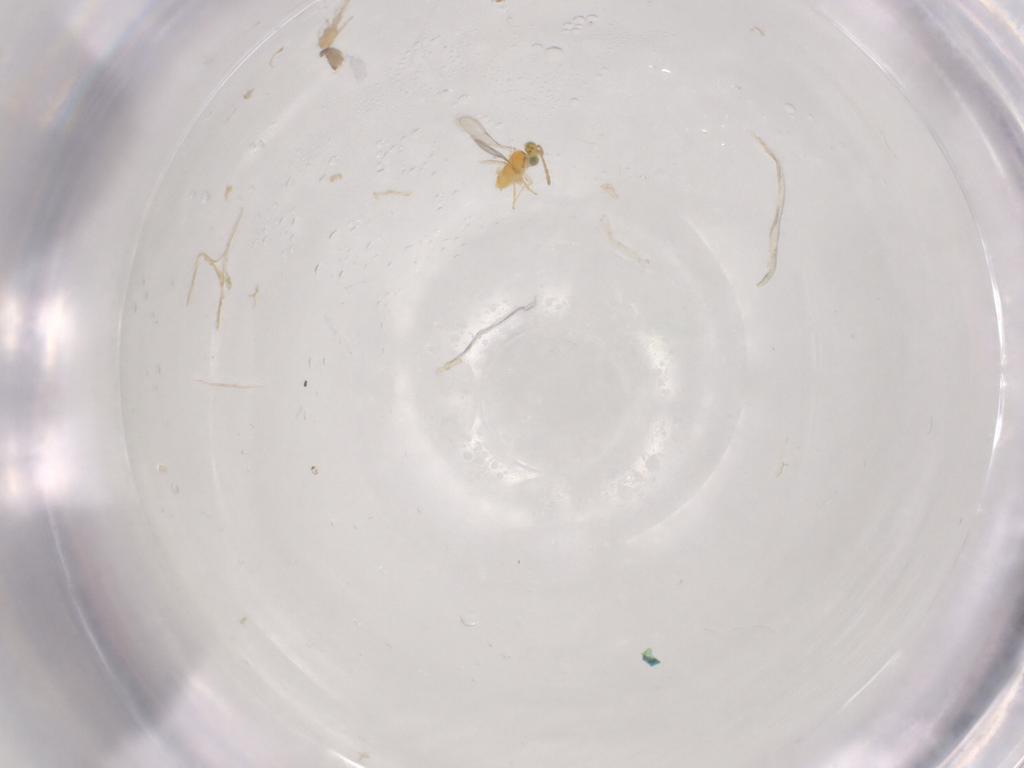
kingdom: Animalia
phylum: Arthropoda
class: Insecta
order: Hymenoptera
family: Aphelinidae
